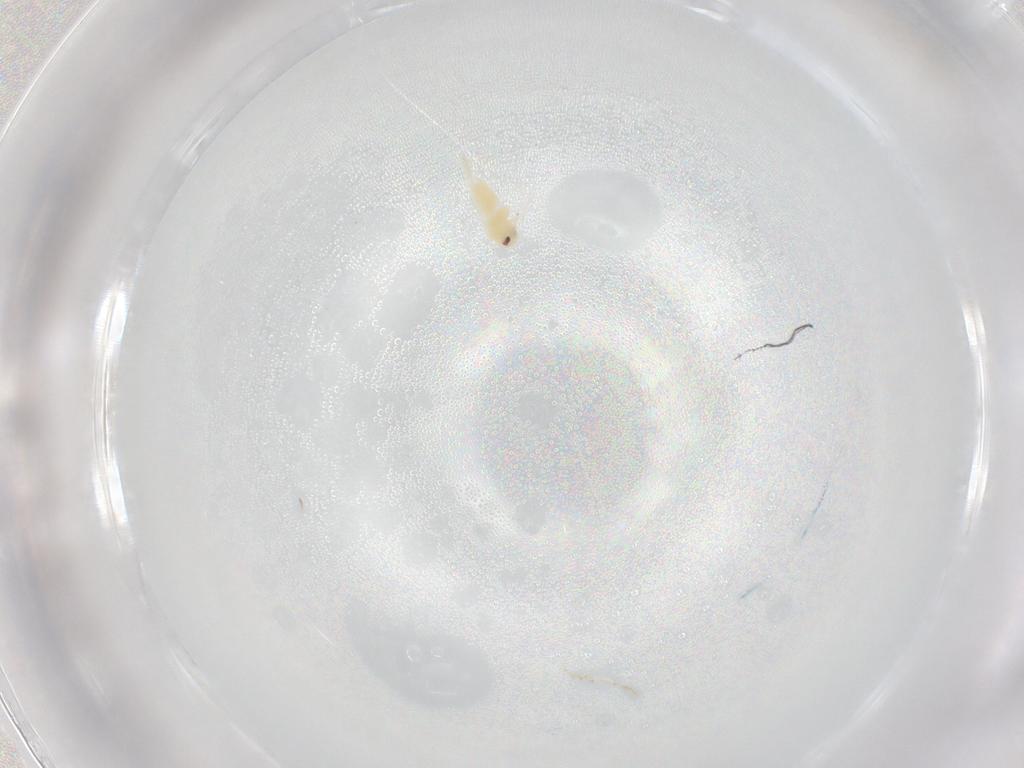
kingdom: Animalia
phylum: Arthropoda
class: Insecta
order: Hemiptera
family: Aleyrodidae
